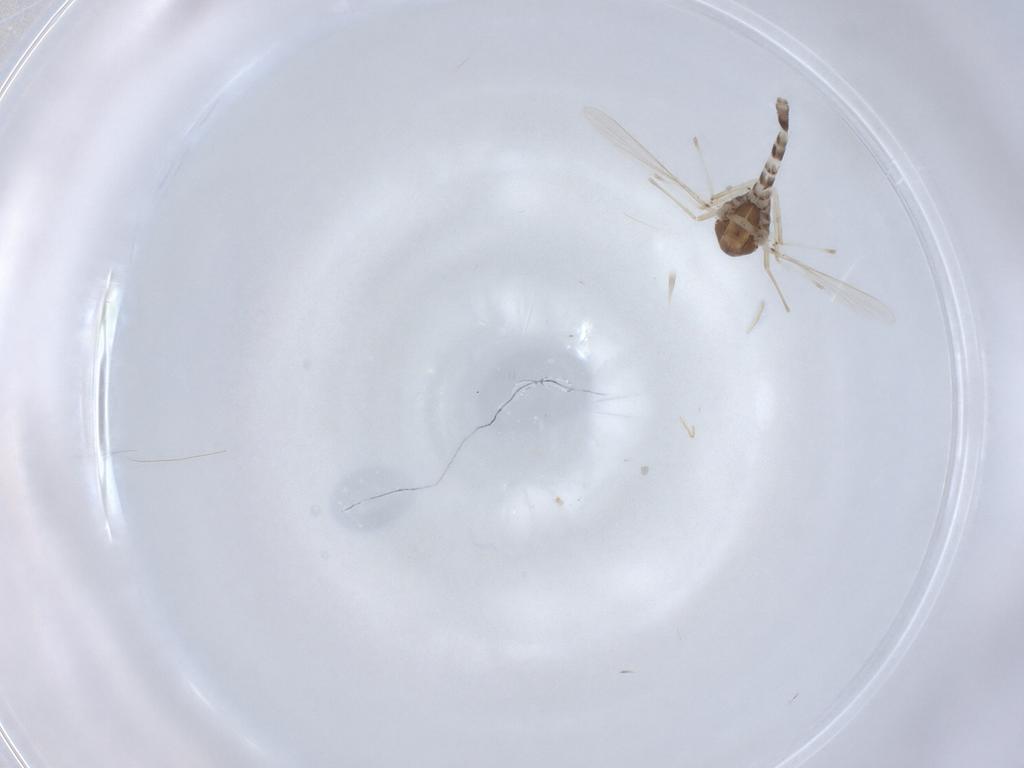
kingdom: Animalia
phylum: Arthropoda
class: Insecta
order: Diptera
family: Chironomidae
